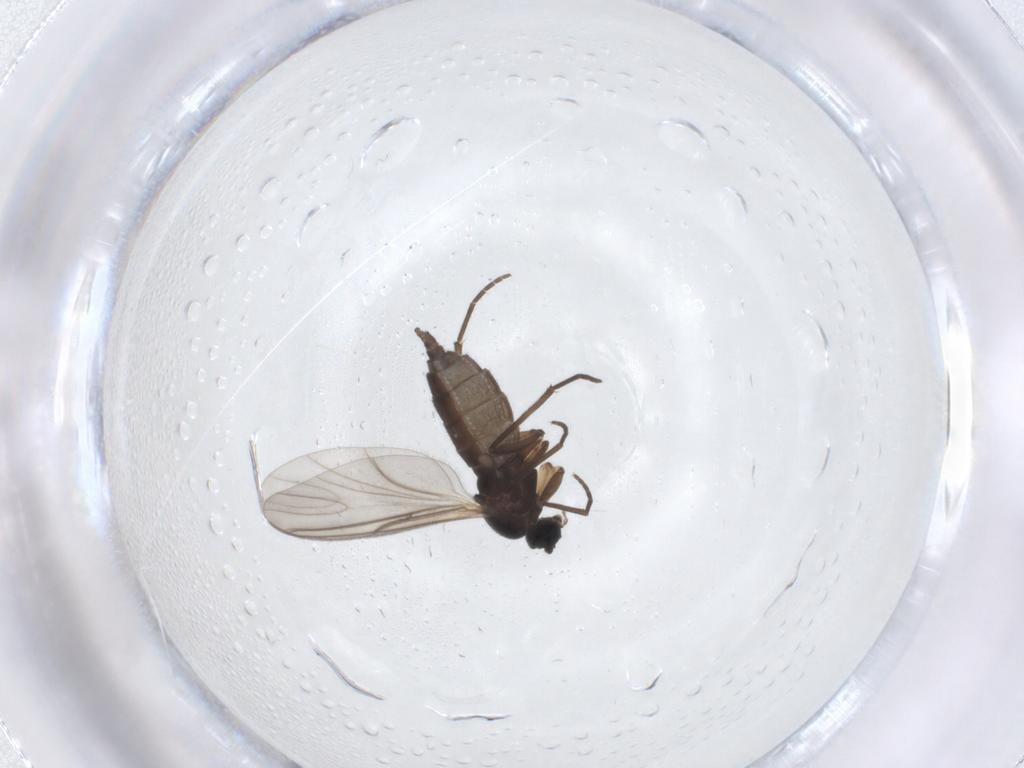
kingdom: Animalia
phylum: Arthropoda
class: Insecta
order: Diptera
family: Sciaridae
